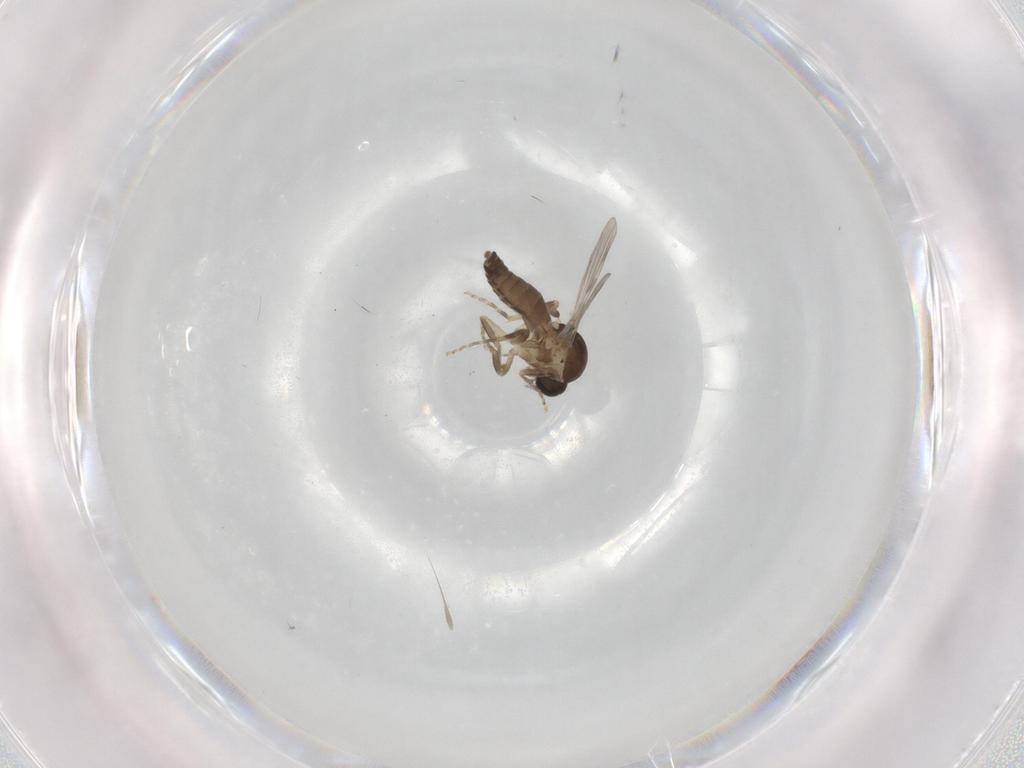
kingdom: Animalia
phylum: Arthropoda
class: Insecta
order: Diptera
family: Ceratopogonidae
